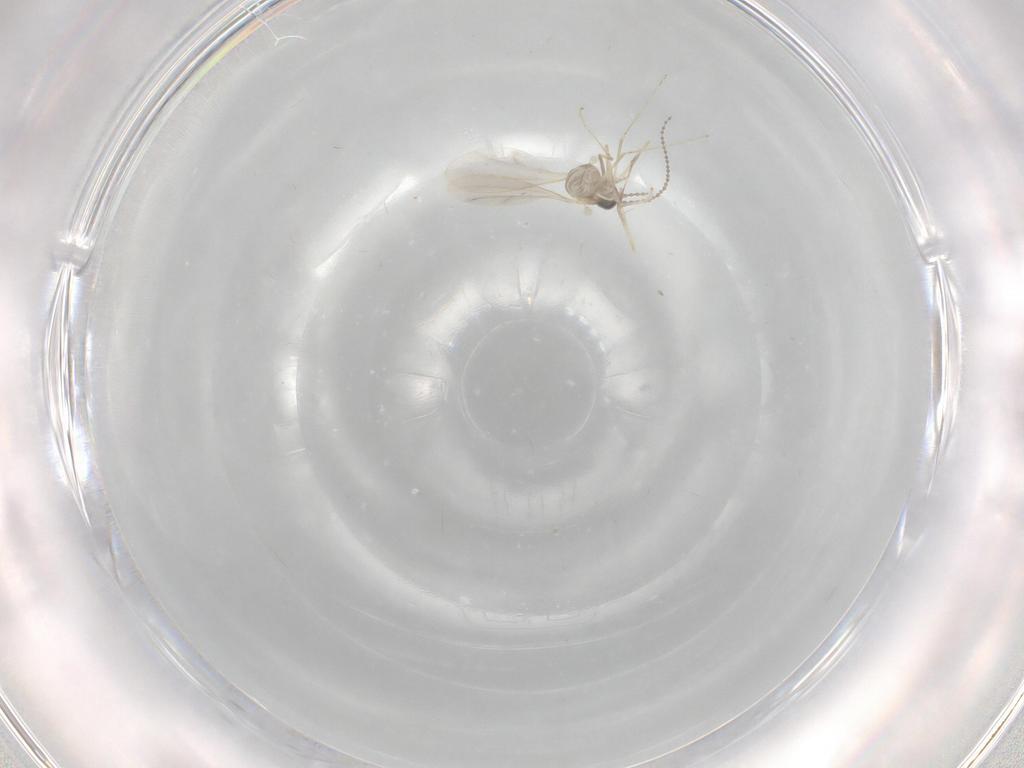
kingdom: Animalia
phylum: Arthropoda
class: Insecta
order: Diptera
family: Cecidomyiidae
